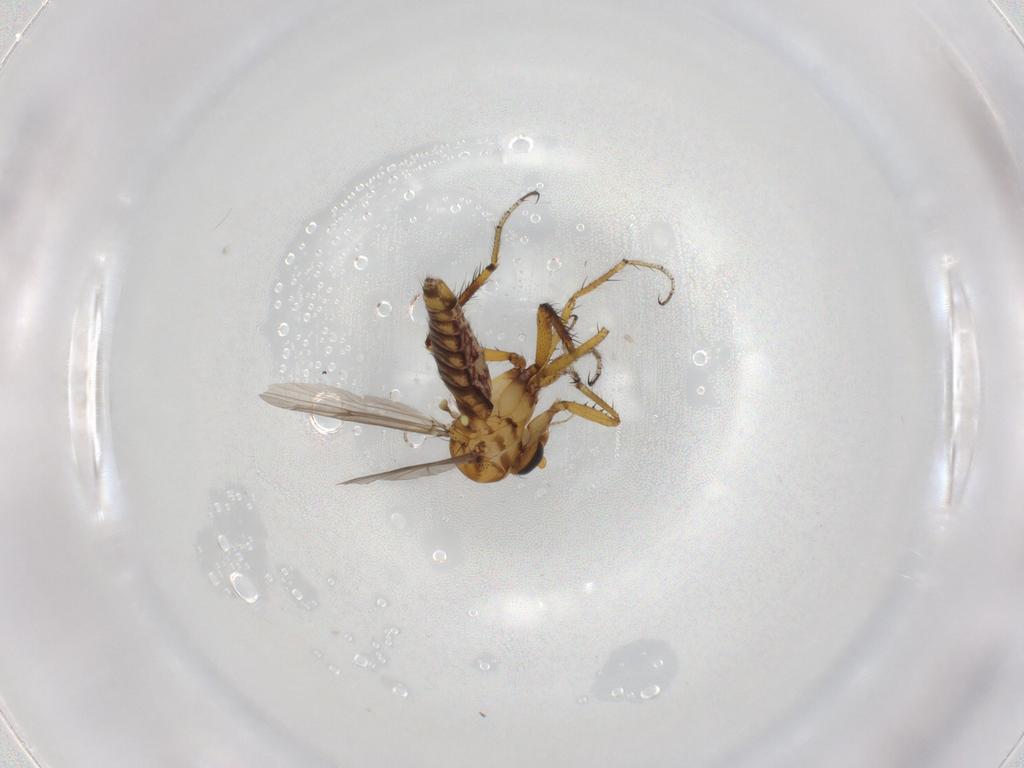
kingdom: Animalia
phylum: Arthropoda
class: Insecta
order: Diptera
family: Ceratopogonidae
